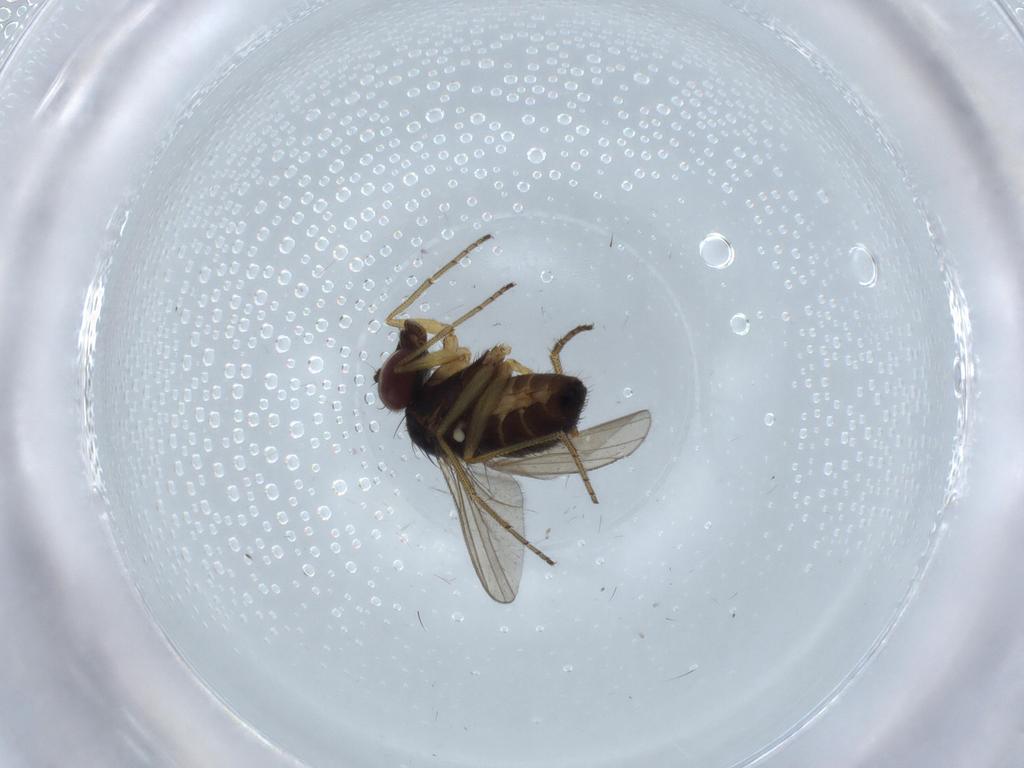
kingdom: Animalia
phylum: Arthropoda
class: Insecta
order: Diptera
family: Dolichopodidae
